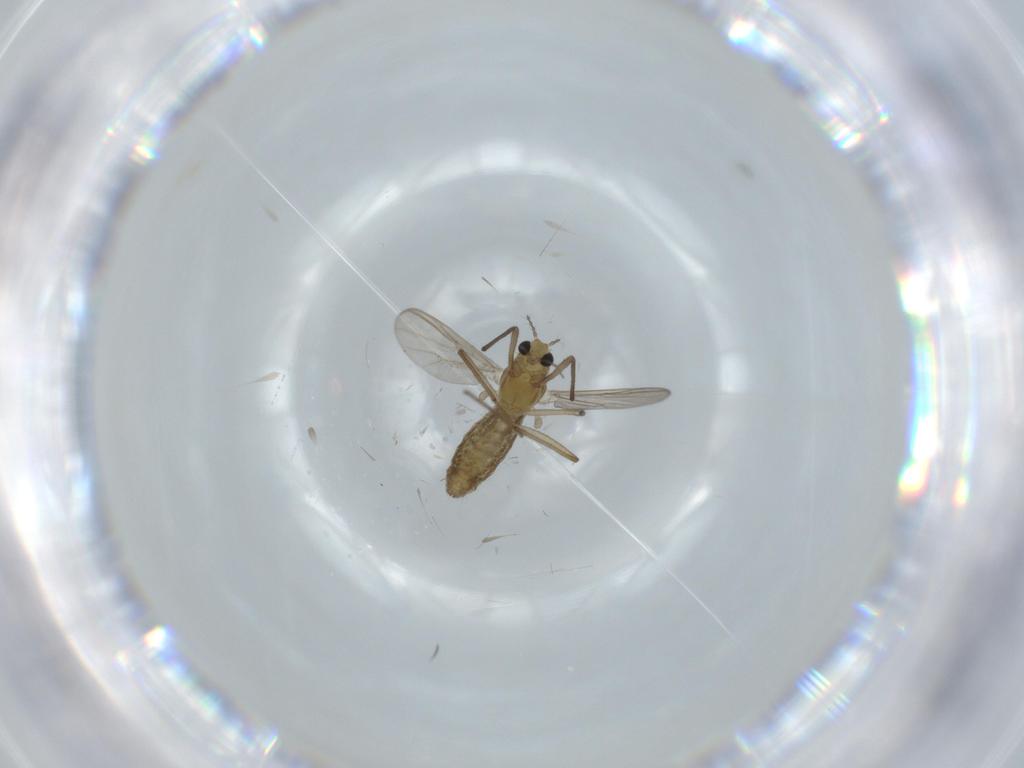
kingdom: Animalia
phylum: Arthropoda
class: Insecta
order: Diptera
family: Chironomidae
